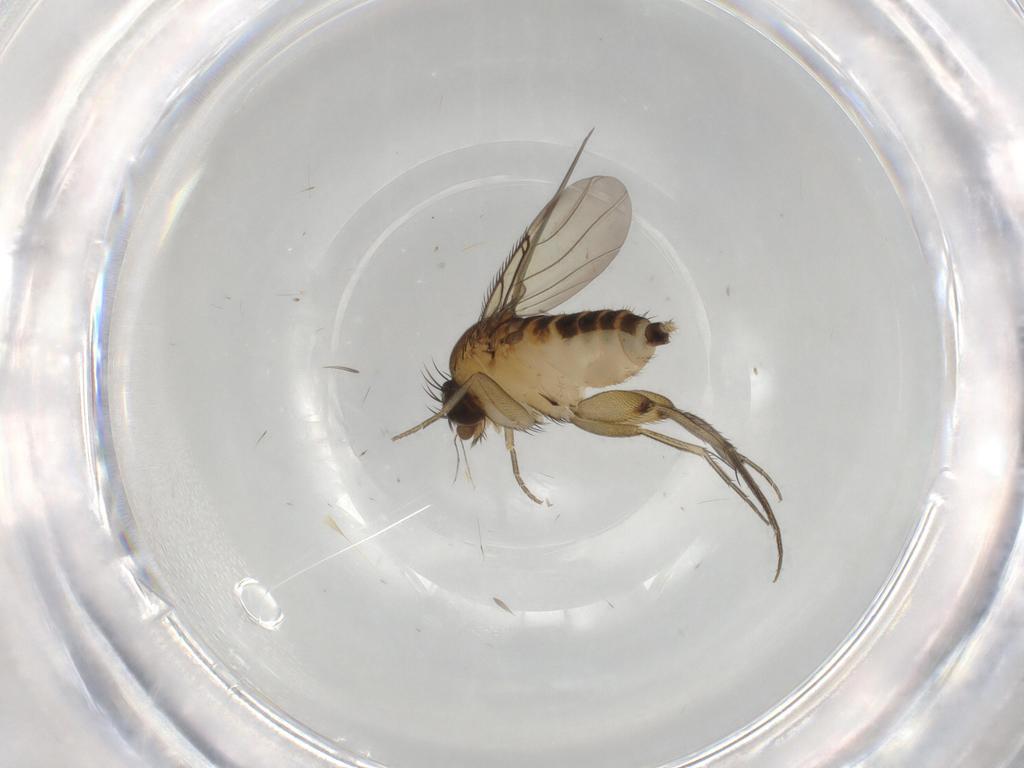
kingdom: Animalia
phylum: Arthropoda
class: Insecta
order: Diptera
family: Phoridae
